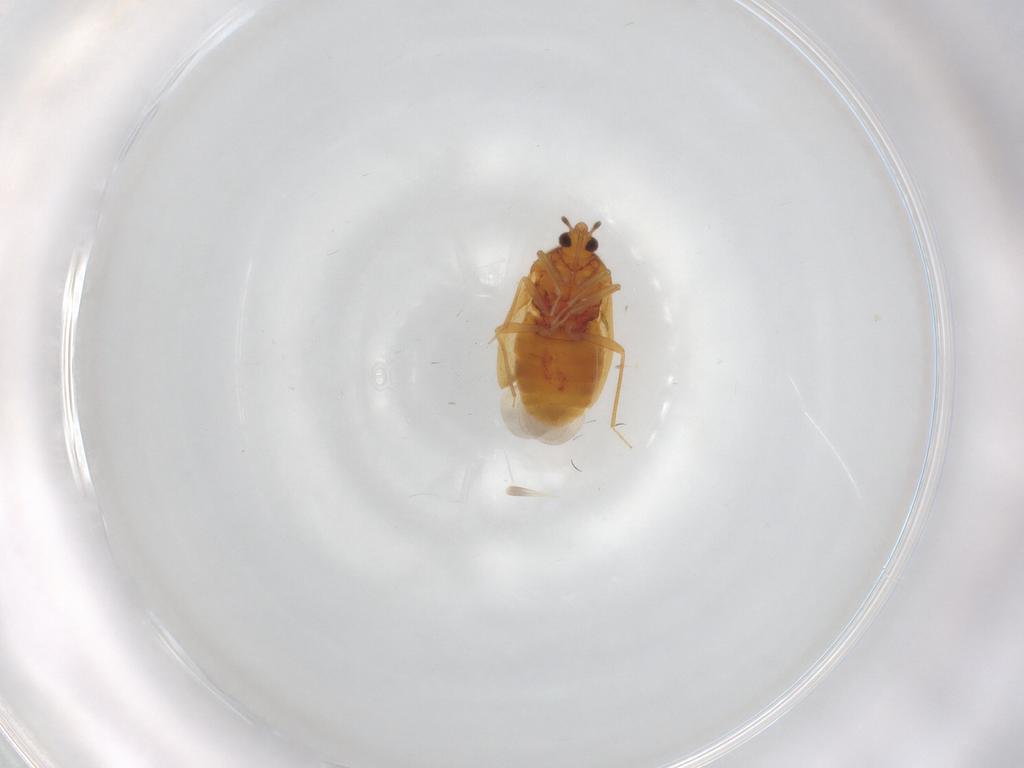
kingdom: Animalia
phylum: Arthropoda
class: Insecta
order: Hemiptera
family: Cicadellidae
